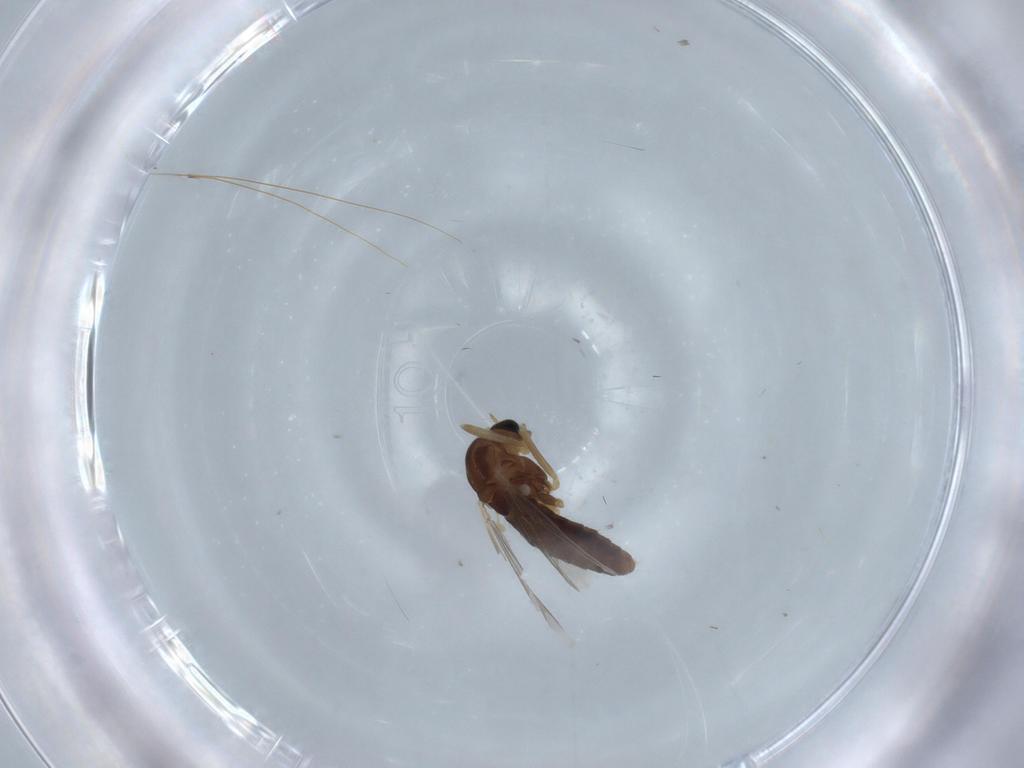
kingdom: Animalia
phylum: Arthropoda
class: Insecta
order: Diptera
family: Chironomidae
